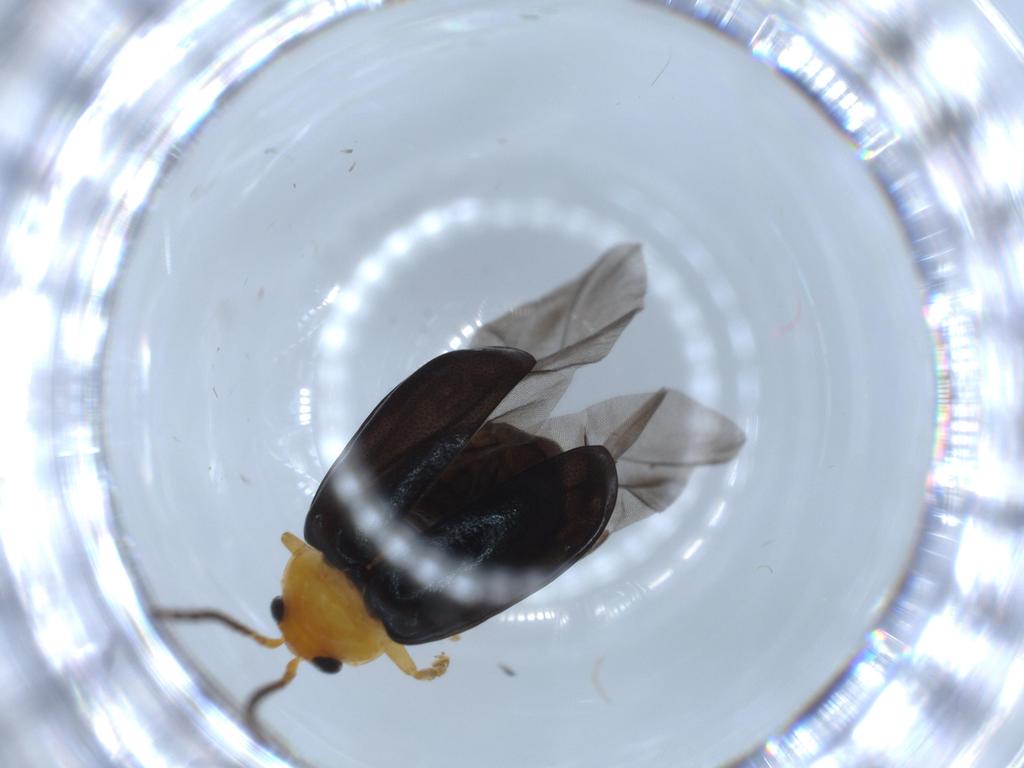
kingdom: Animalia
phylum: Arthropoda
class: Insecta
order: Coleoptera
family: Chrysomelidae
